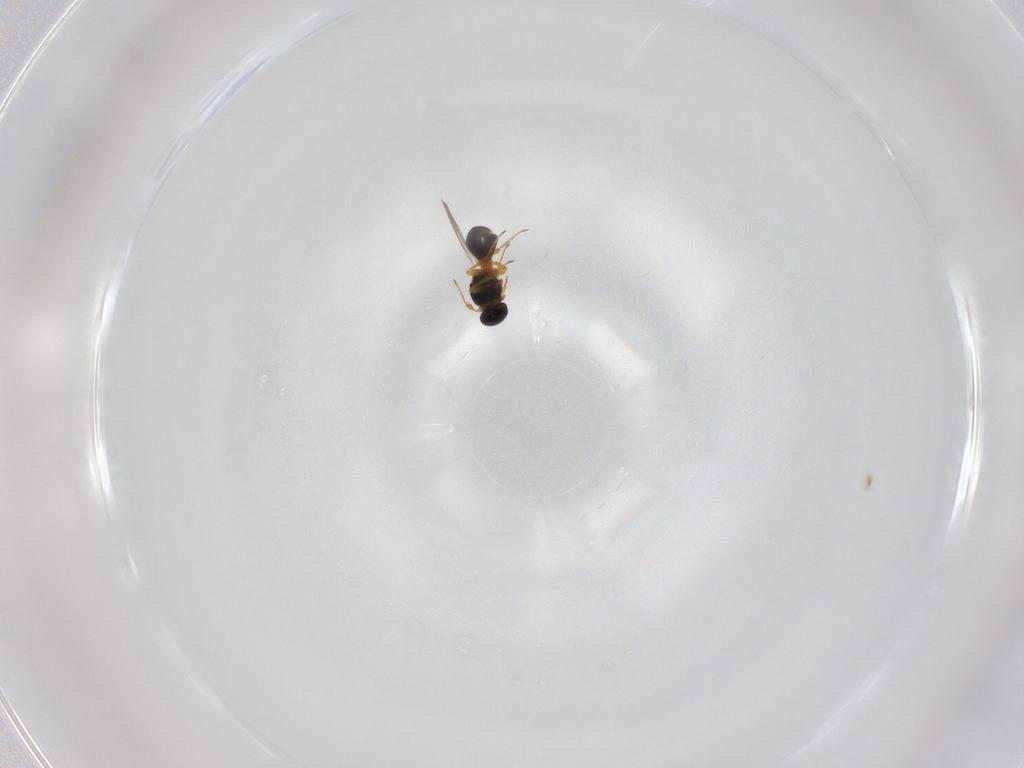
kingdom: Animalia
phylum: Arthropoda
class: Insecta
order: Hymenoptera
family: Platygastridae
